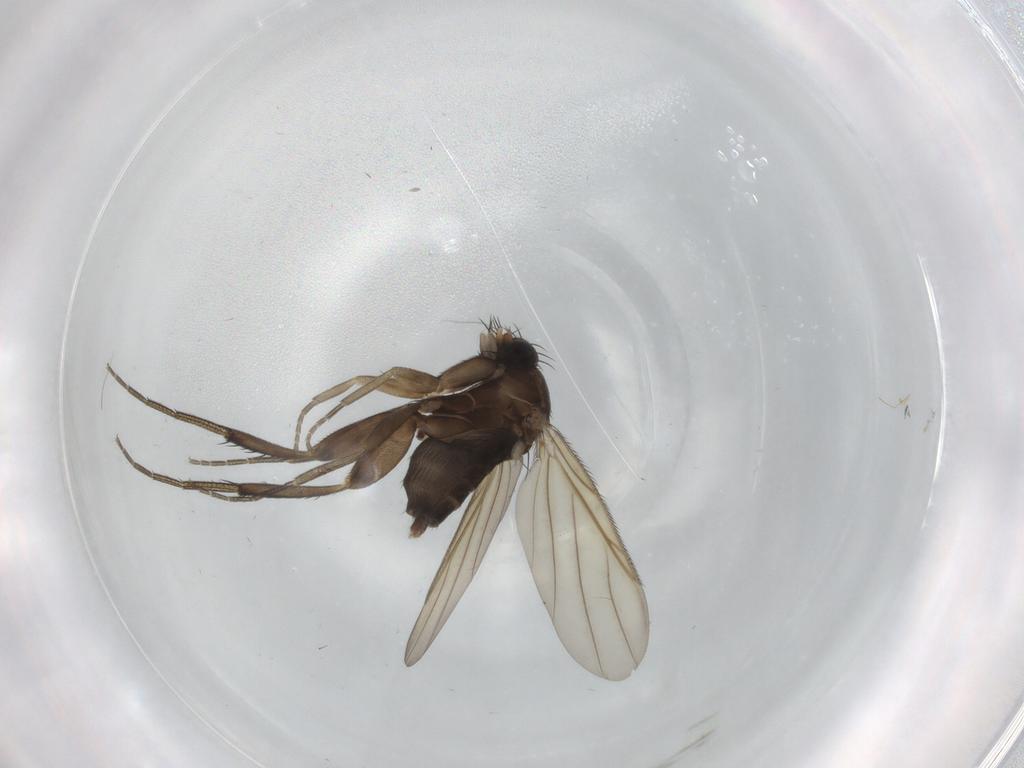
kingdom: Animalia
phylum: Arthropoda
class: Insecta
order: Diptera
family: Phoridae
